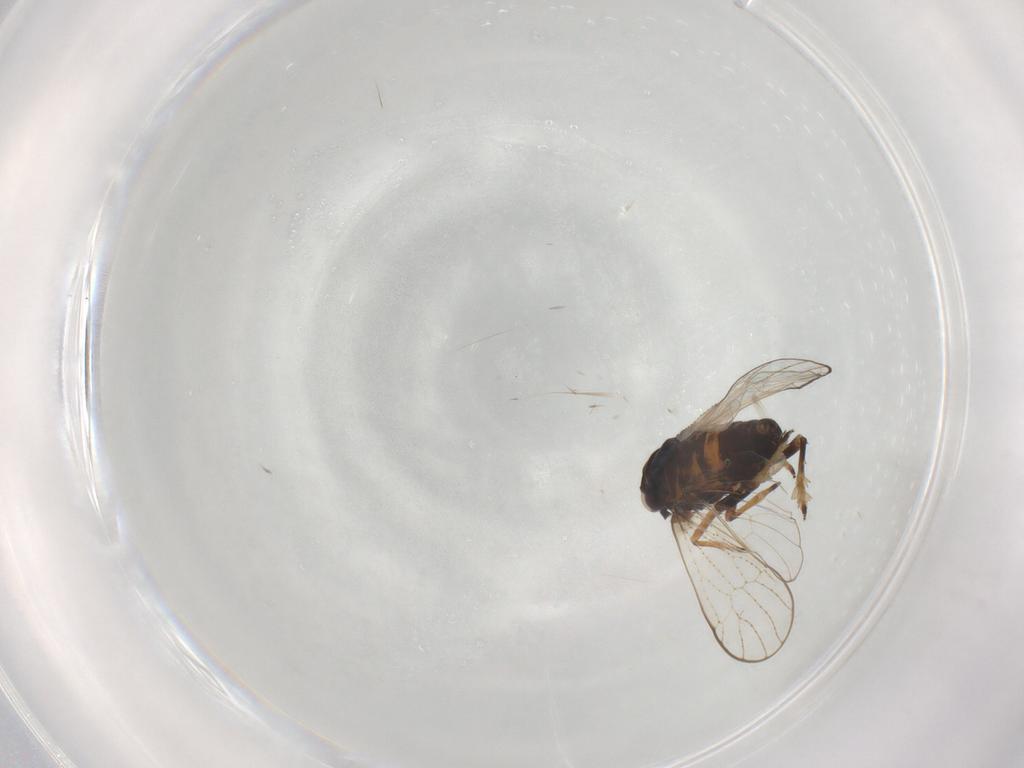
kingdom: Animalia
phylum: Arthropoda
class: Insecta
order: Hemiptera
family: Delphacidae
